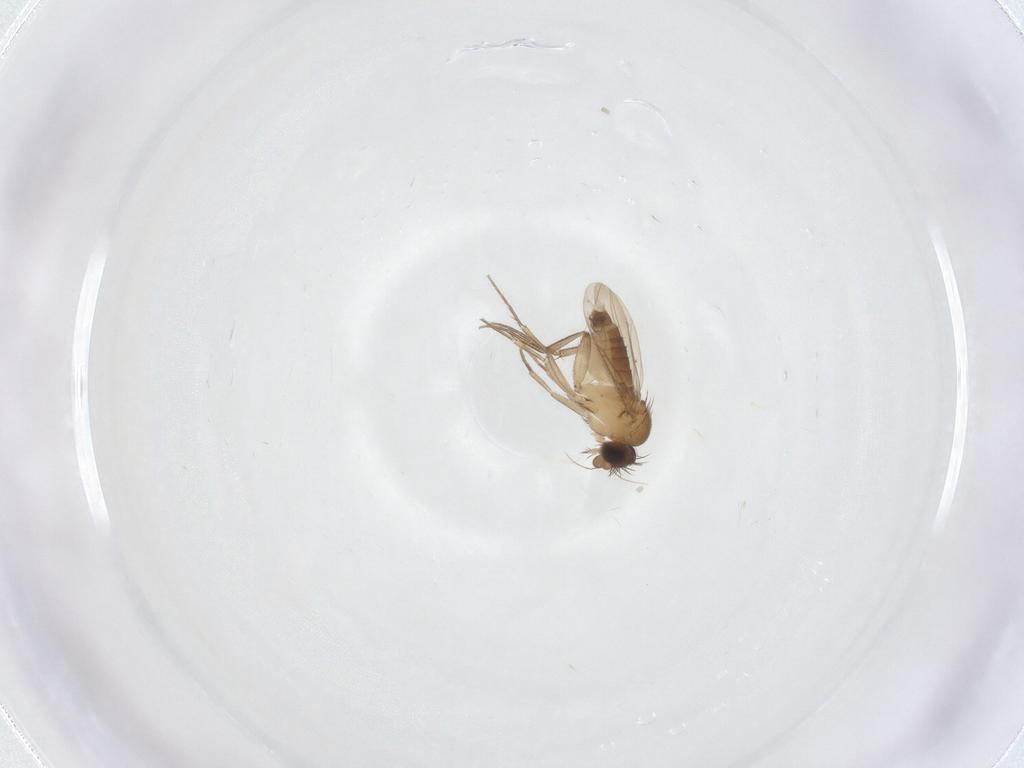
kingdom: Animalia
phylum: Arthropoda
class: Insecta
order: Diptera
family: Phoridae
